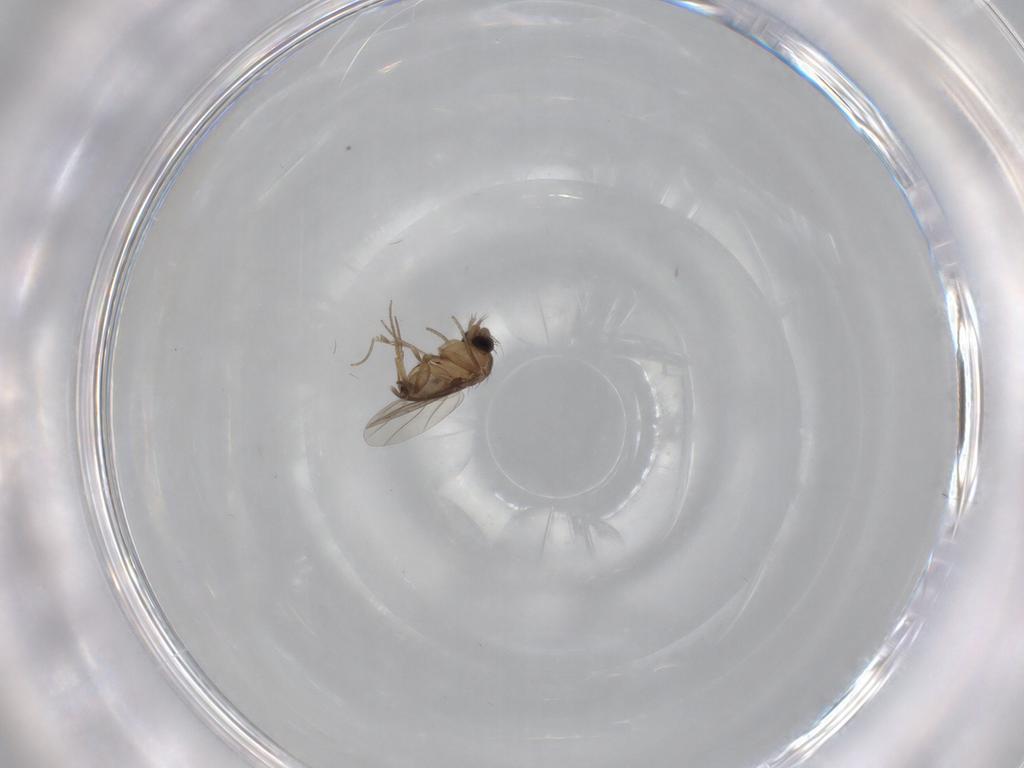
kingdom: Animalia
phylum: Arthropoda
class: Insecta
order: Diptera
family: Phoridae
